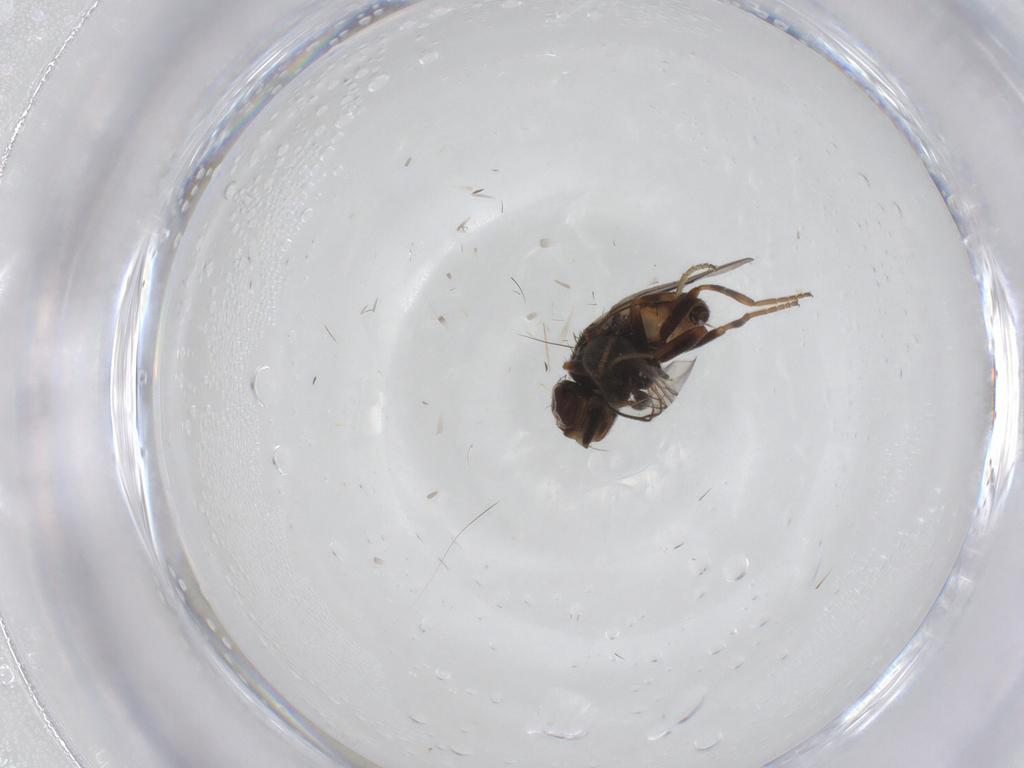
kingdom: Animalia
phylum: Arthropoda
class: Insecta
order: Diptera
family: Chloropidae
